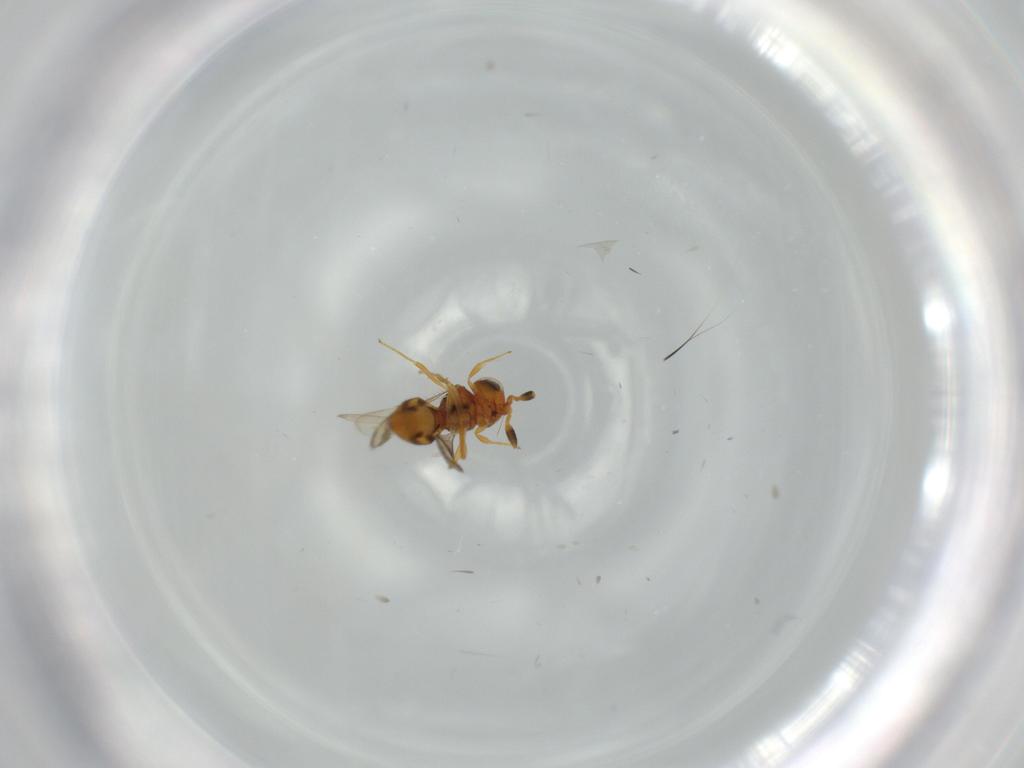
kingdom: Animalia
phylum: Arthropoda
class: Insecta
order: Hymenoptera
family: Scelionidae
